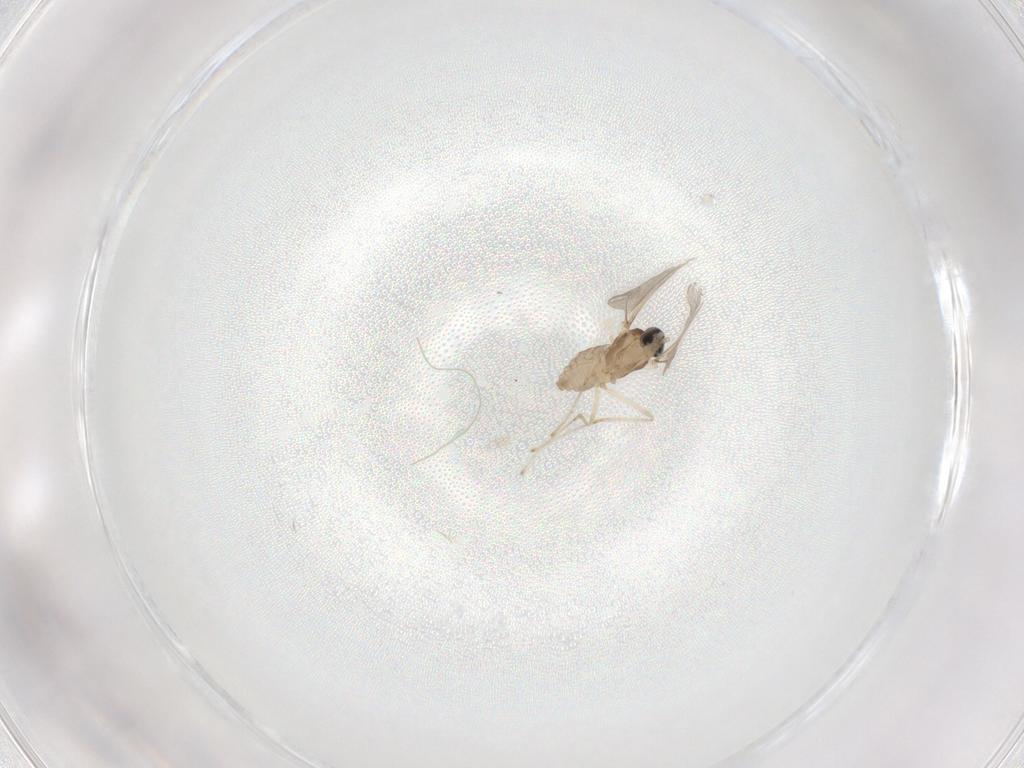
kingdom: Animalia
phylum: Arthropoda
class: Insecta
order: Diptera
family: Cecidomyiidae
